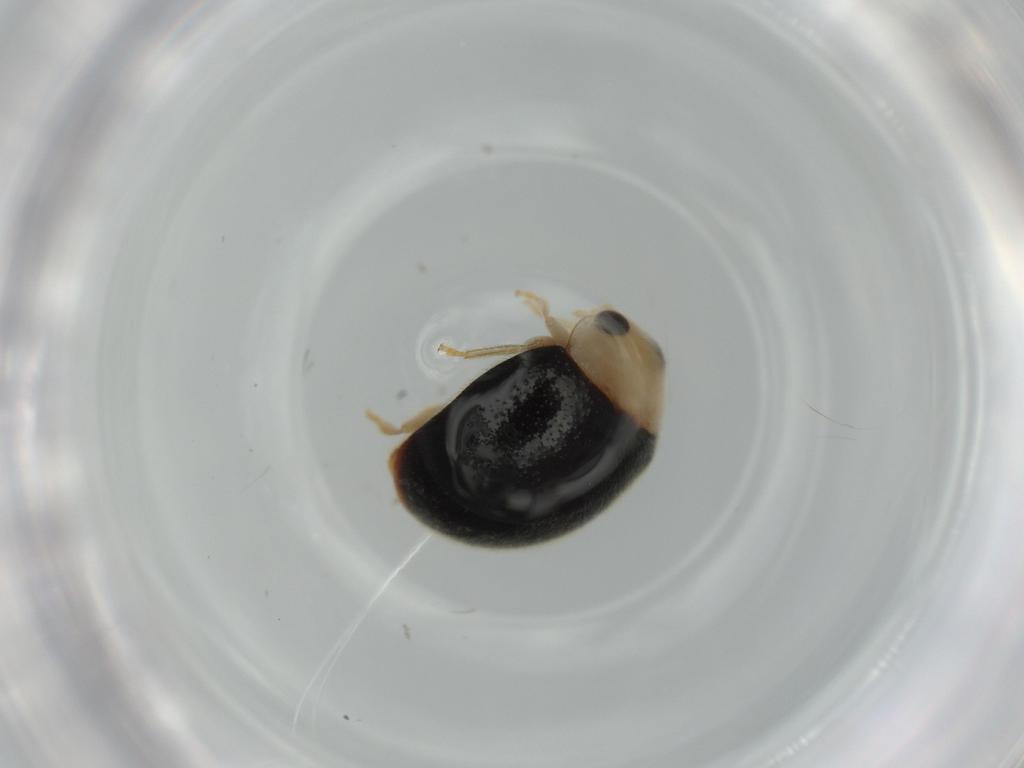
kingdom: Animalia
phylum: Arthropoda
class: Insecta
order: Coleoptera
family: Coccinellidae
